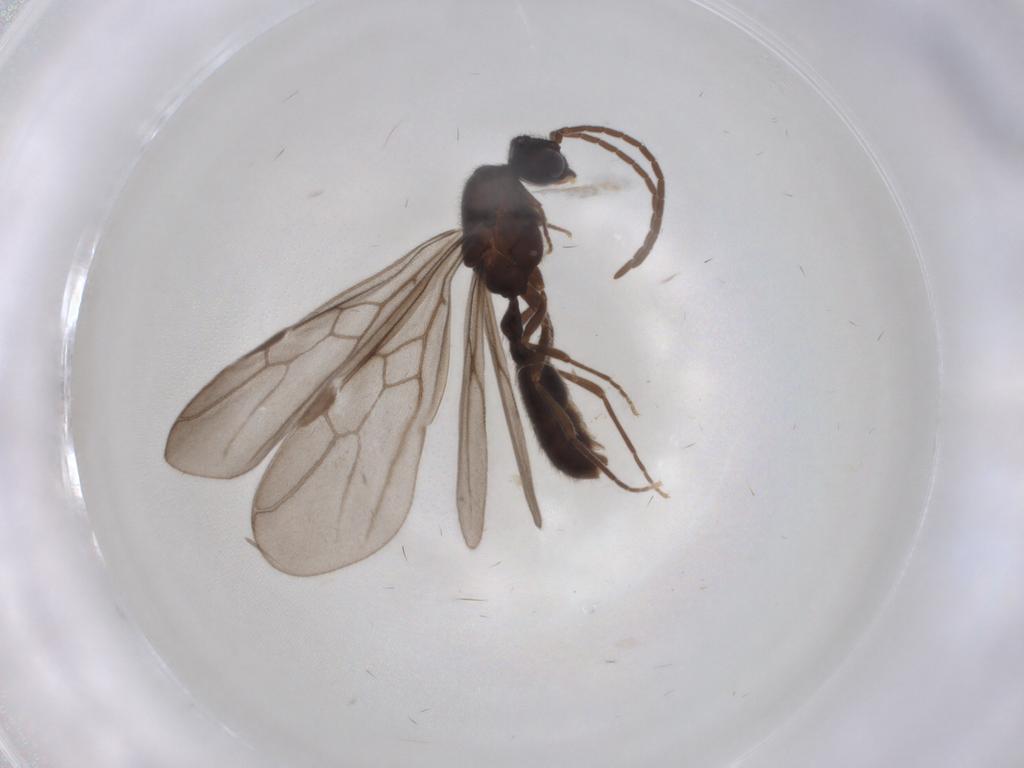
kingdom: Animalia
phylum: Arthropoda
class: Insecta
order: Hymenoptera
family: Formicidae
